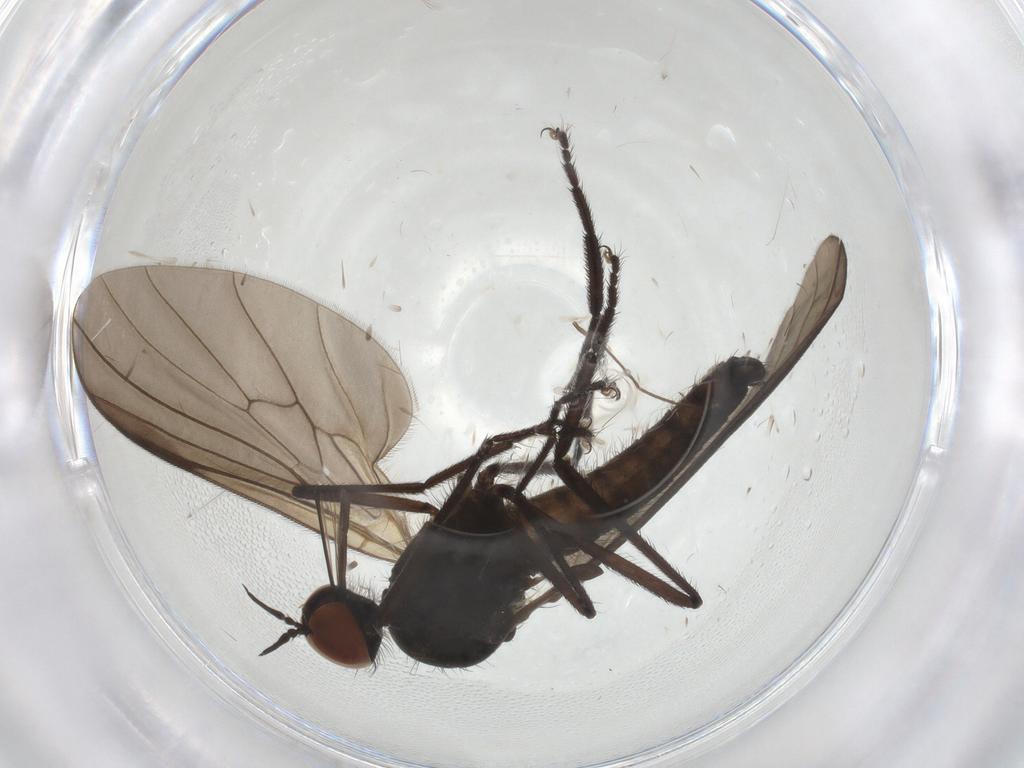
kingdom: Animalia
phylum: Arthropoda
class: Insecta
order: Diptera
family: Empididae
